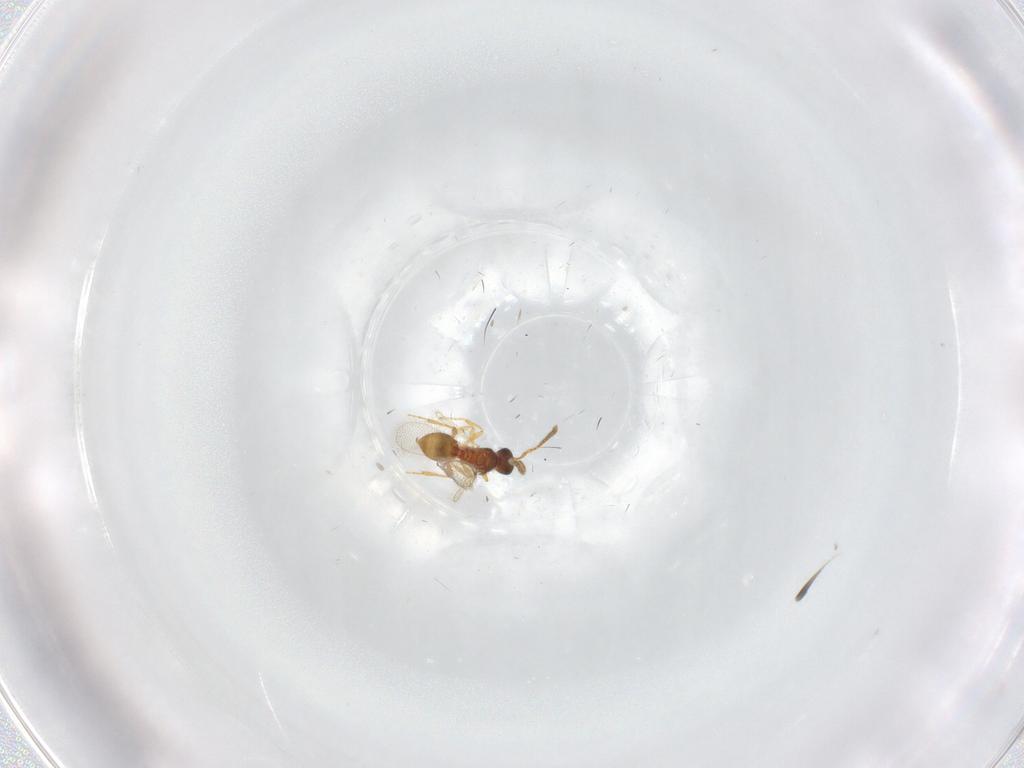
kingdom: Animalia
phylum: Arthropoda
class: Insecta
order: Hymenoptera
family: Diapriidae
